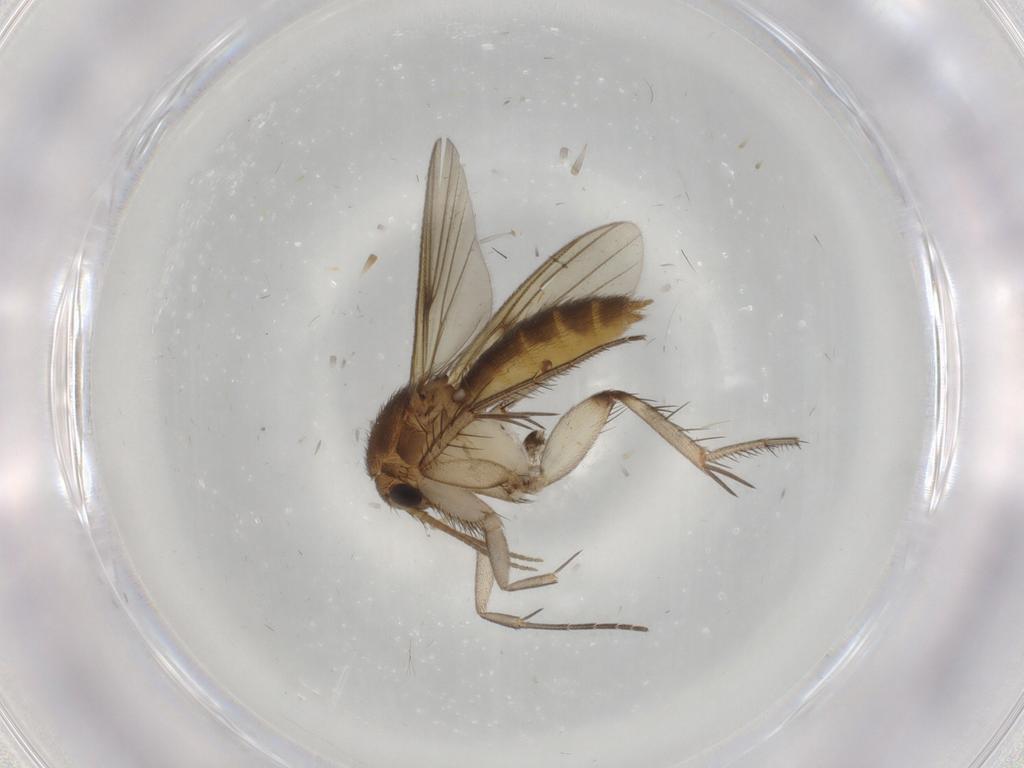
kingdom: Animalia
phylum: Arthropoda
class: Insecta
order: Diptera
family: Cecidomyiidae
